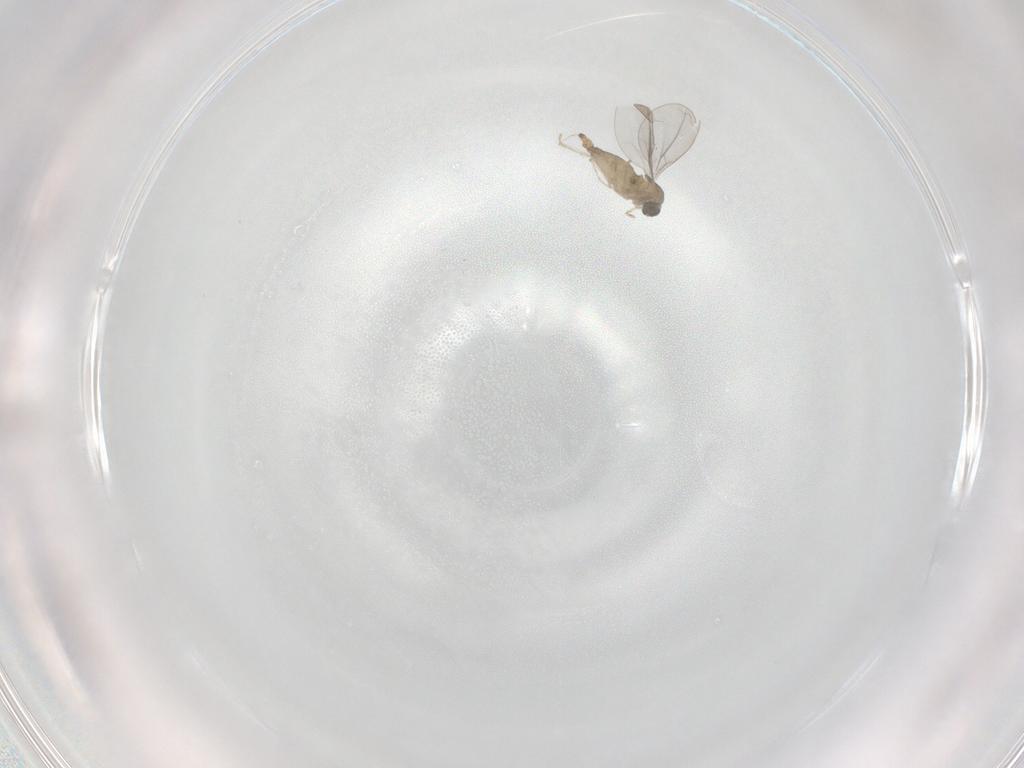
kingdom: Animalia
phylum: Arthropoda
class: Insecta
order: Diptera
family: Cecidomyiidae
